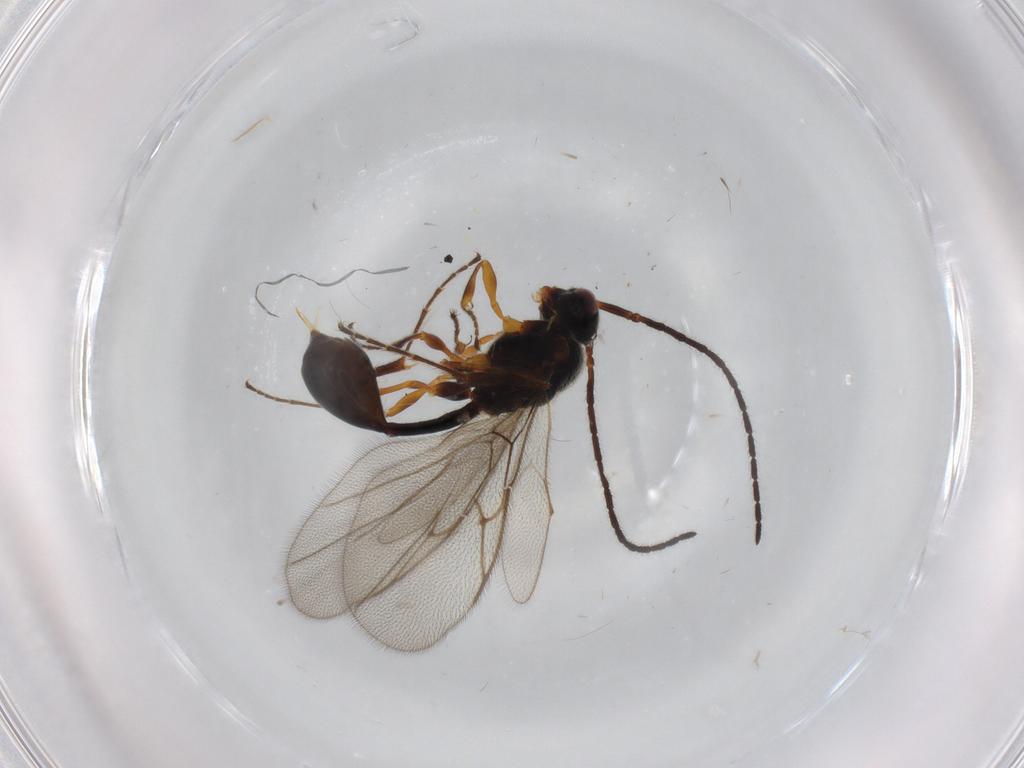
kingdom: Animalia
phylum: Arthropoda
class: Insecta
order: Hymenoptera
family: Diapriidae
